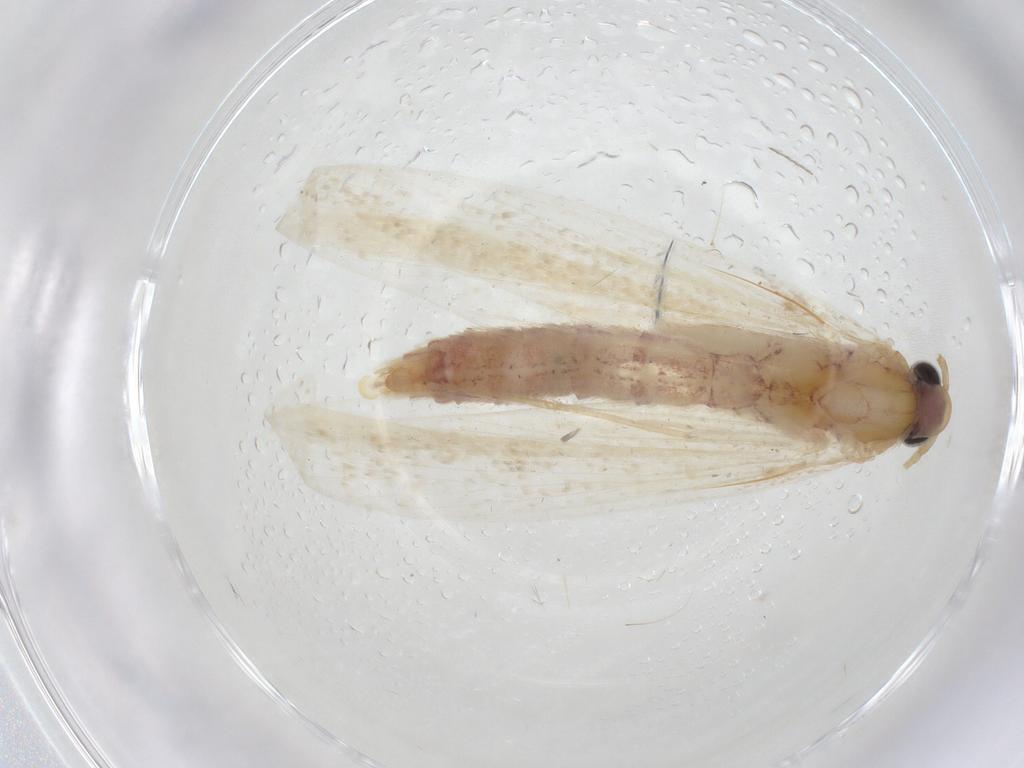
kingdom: Animalia
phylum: Arthropoda
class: Insecta
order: Lepidoptera
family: Crambidae
